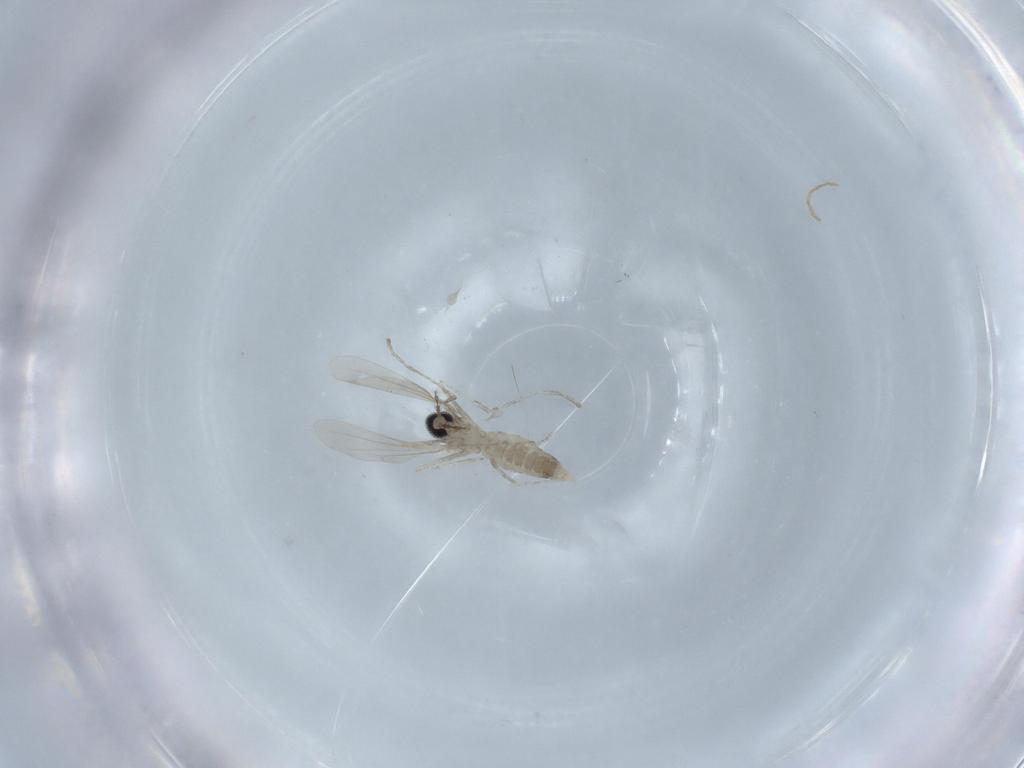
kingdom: Animalia
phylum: Arthropoda
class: Insecta
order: Diptera
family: Cecidomyiidae
